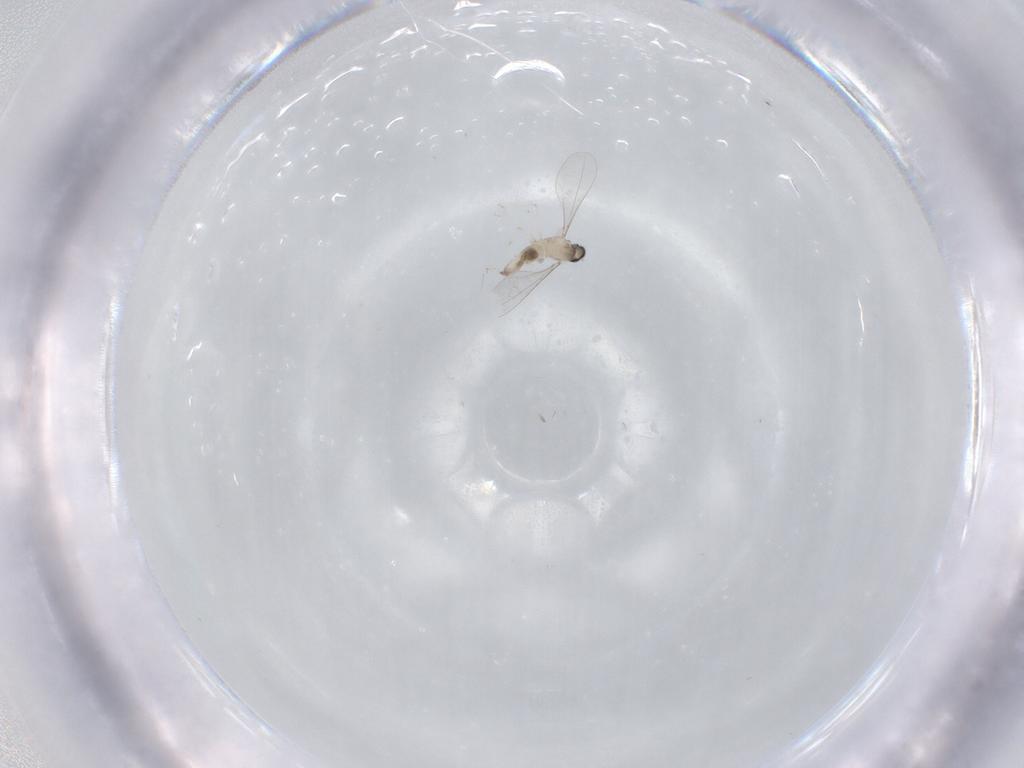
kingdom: Animalia
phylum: Arthropoda
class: Insecta
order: Diptera
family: Cecidomyiidae
